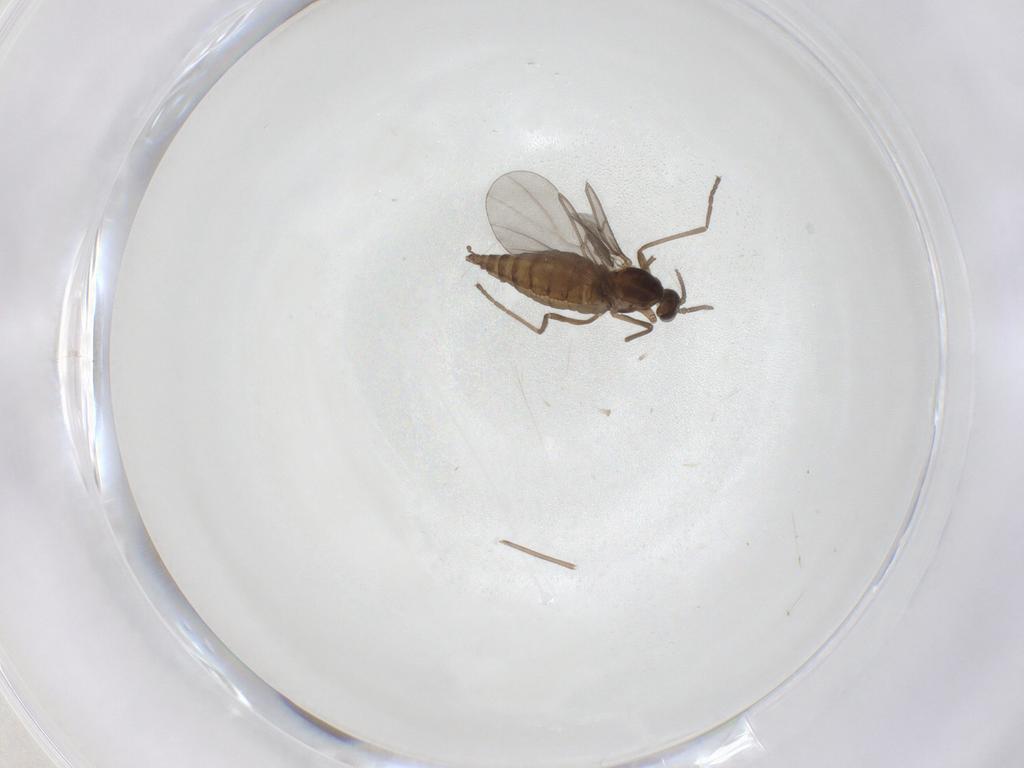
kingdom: Animalia
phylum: Arthropoda
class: Insecta
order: Diptera
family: Cecidomyiidae
